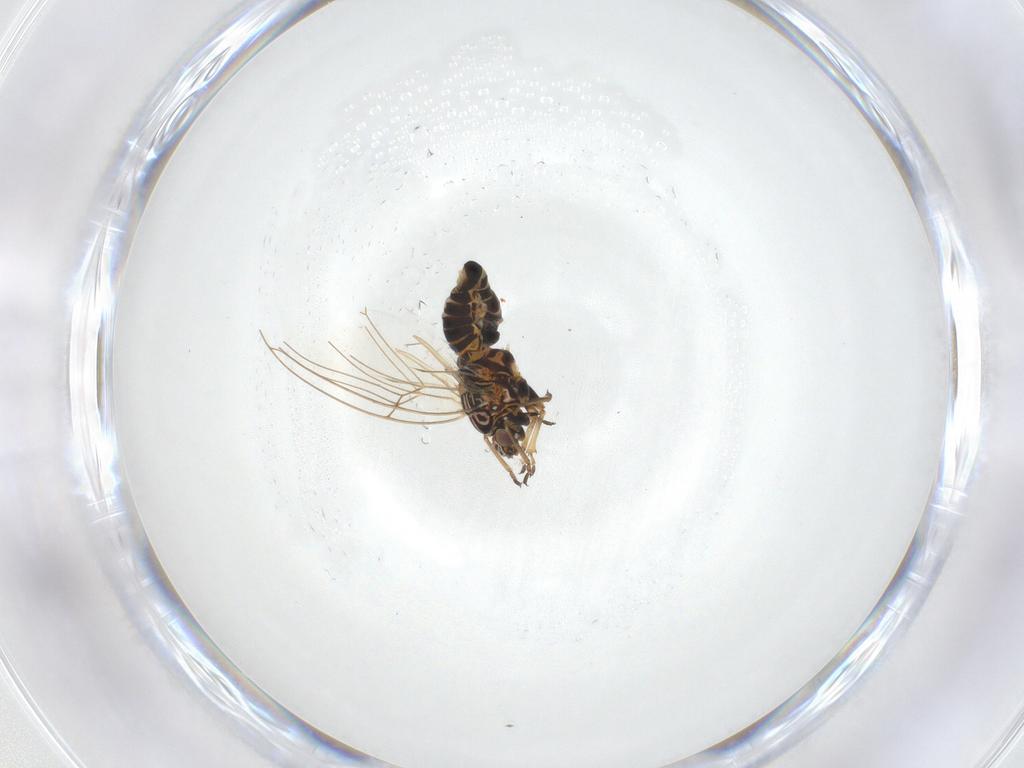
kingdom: Animalia
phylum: Arthropoda
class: Insecta
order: Hemiptera
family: Triozidae
